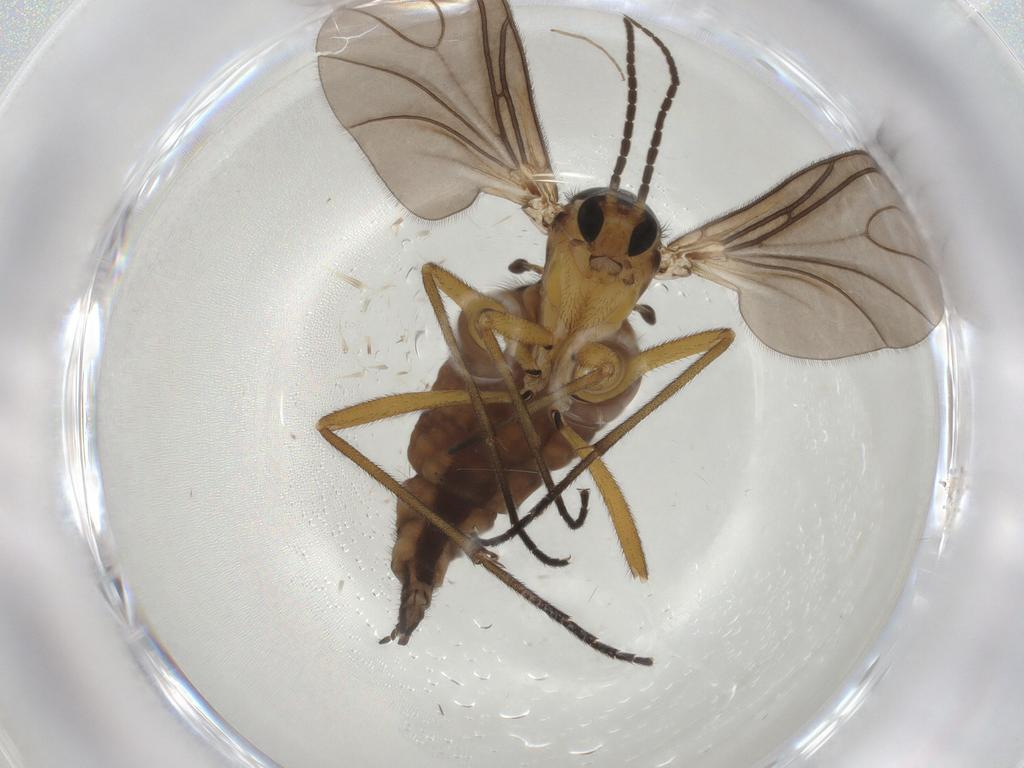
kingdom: Animalia
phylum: Arthropoda
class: Insecta
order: Diptera
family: Sciaridae
